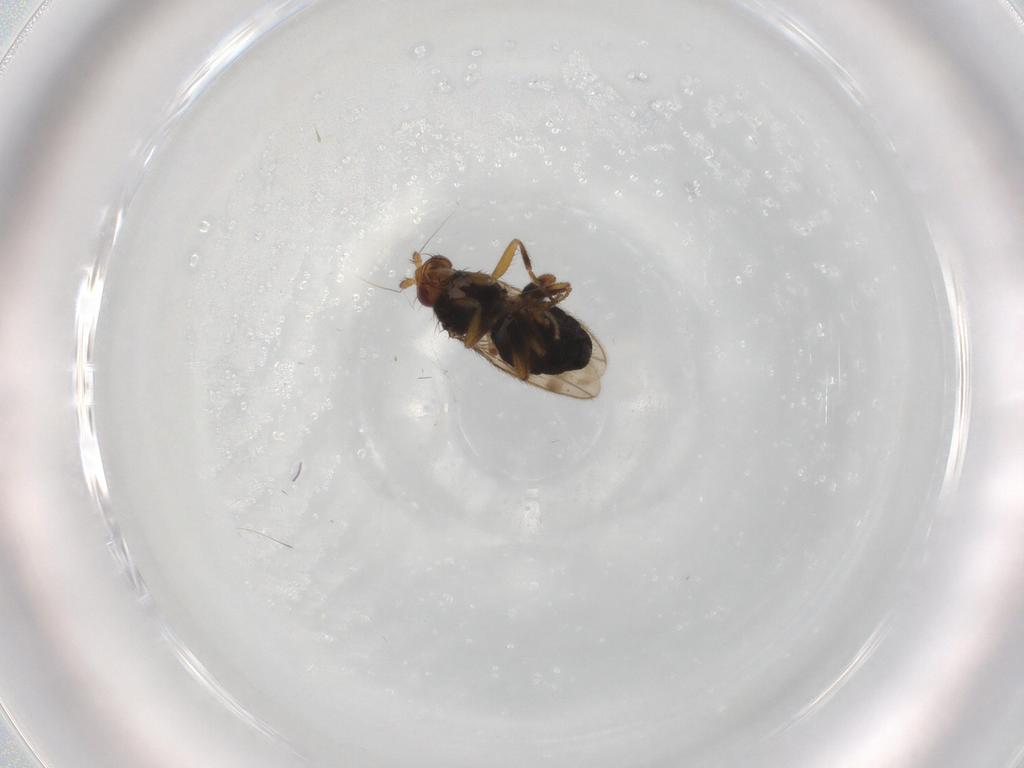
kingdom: Animalia
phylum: Arthropoda
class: Insecta
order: Diptera
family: Sphaeroceridae
